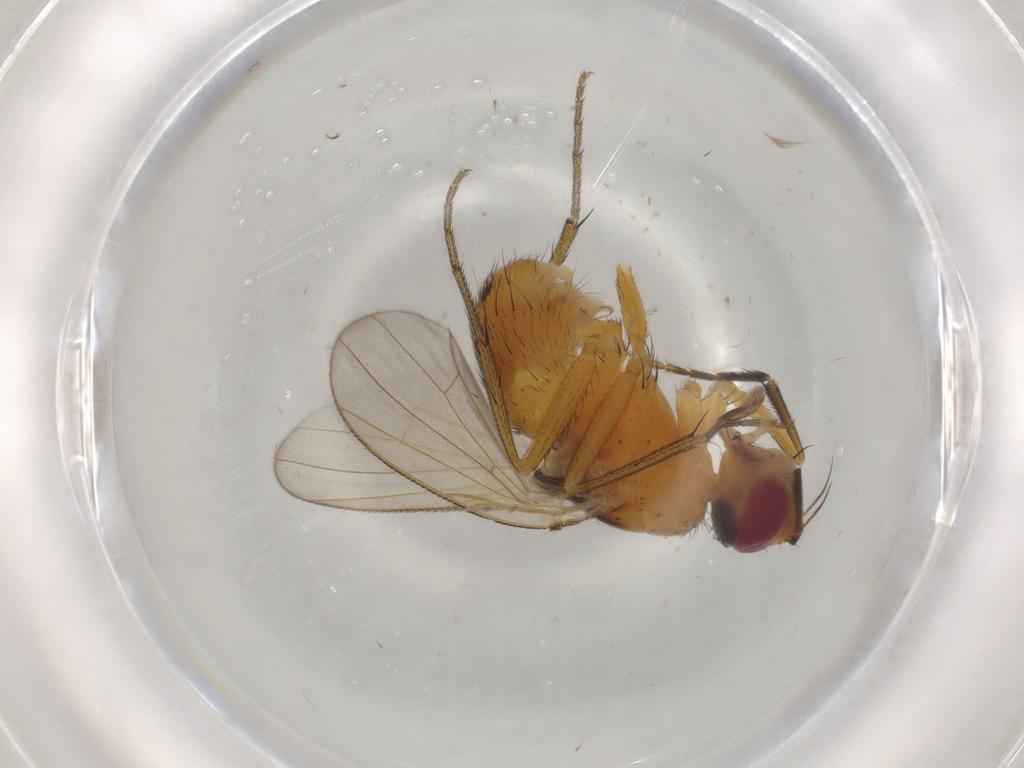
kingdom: Animalia
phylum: Arthropoda
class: Insecta
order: Diptera
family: Muscidae
